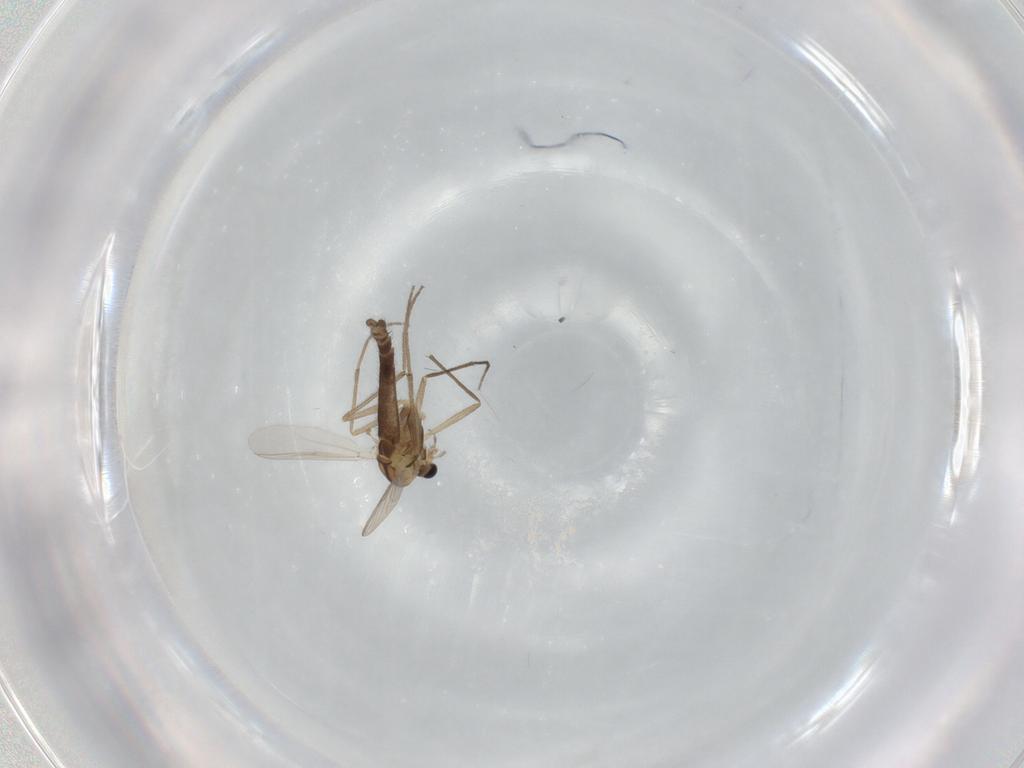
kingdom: Animalia
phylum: Arthropoda
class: Insecta
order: Diptera
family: Chironomidae
